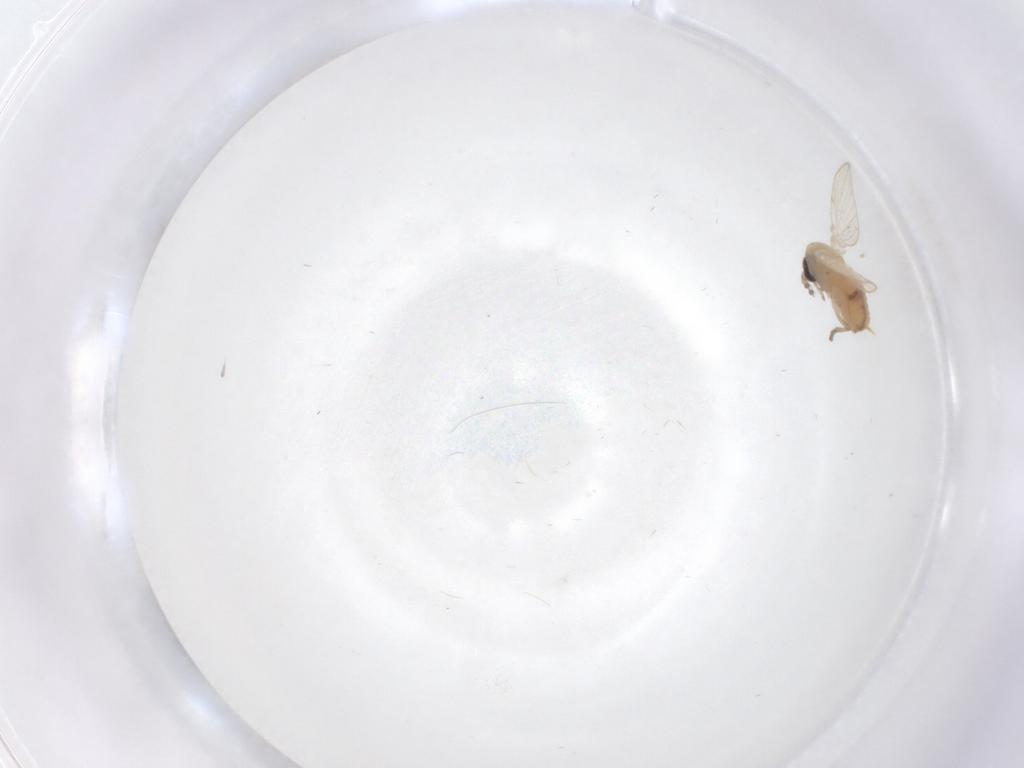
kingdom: Animalia
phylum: Arthropoda
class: Insecta
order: Diptera
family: Psychodidae
